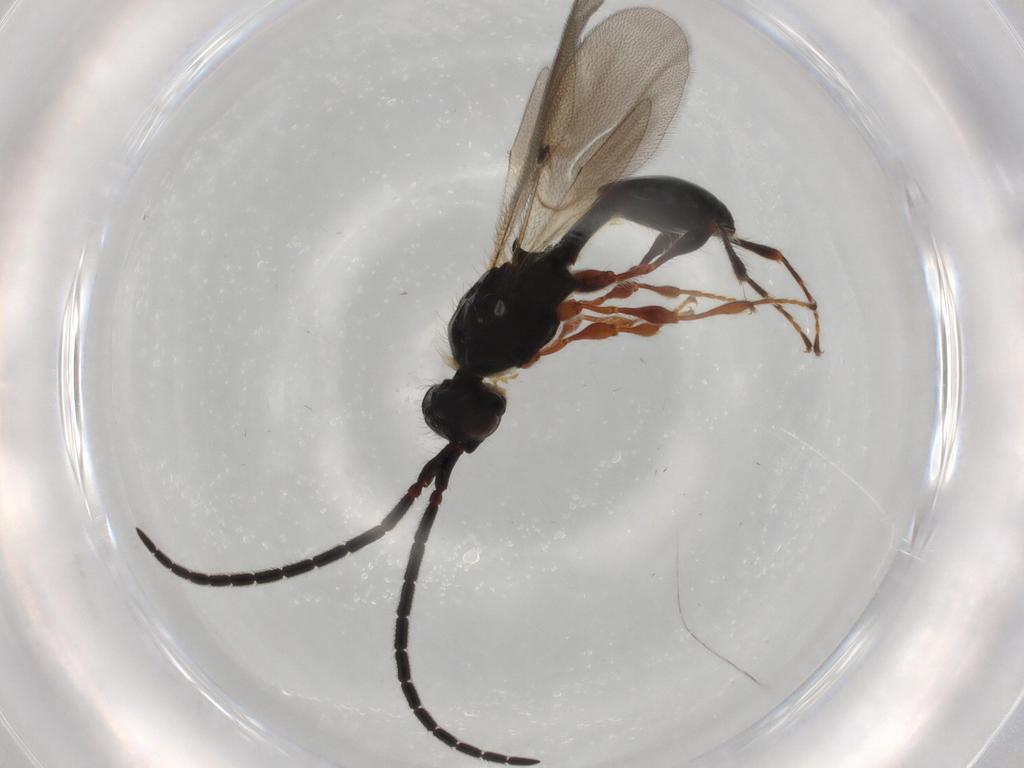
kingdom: Animalia
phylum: Arthropoda
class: Insecta
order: Hymenoptera
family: Diapriidae
